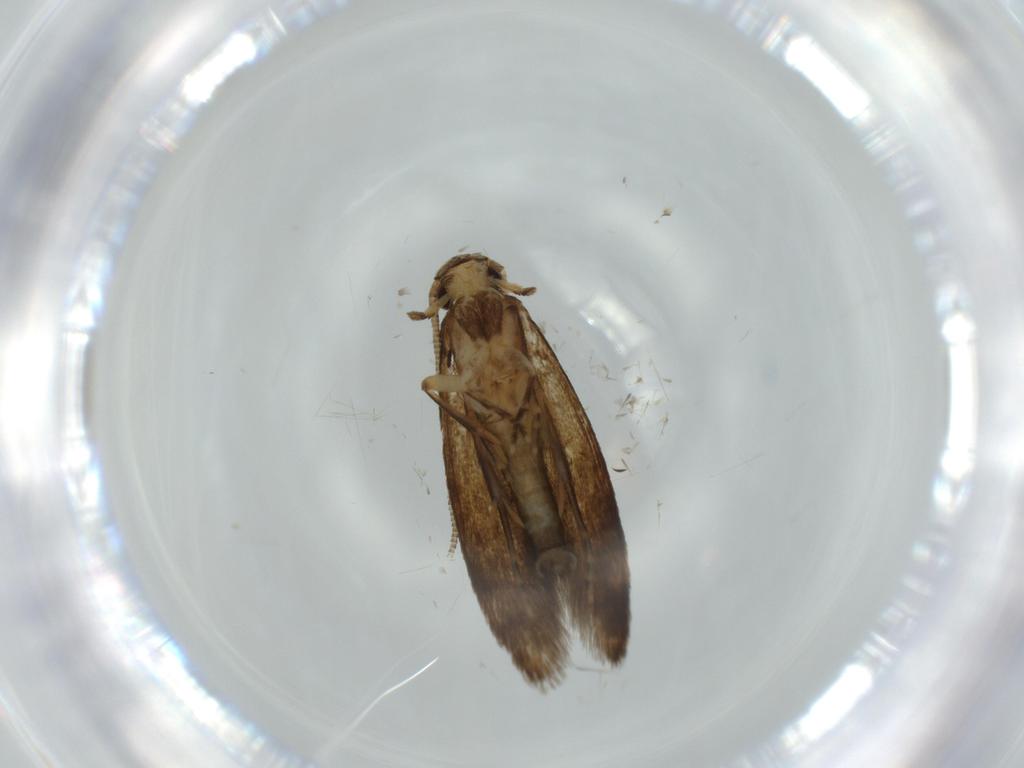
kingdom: Animalia
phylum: Arthropoda
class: Insecta
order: Lepidoptera
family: Tineidae
